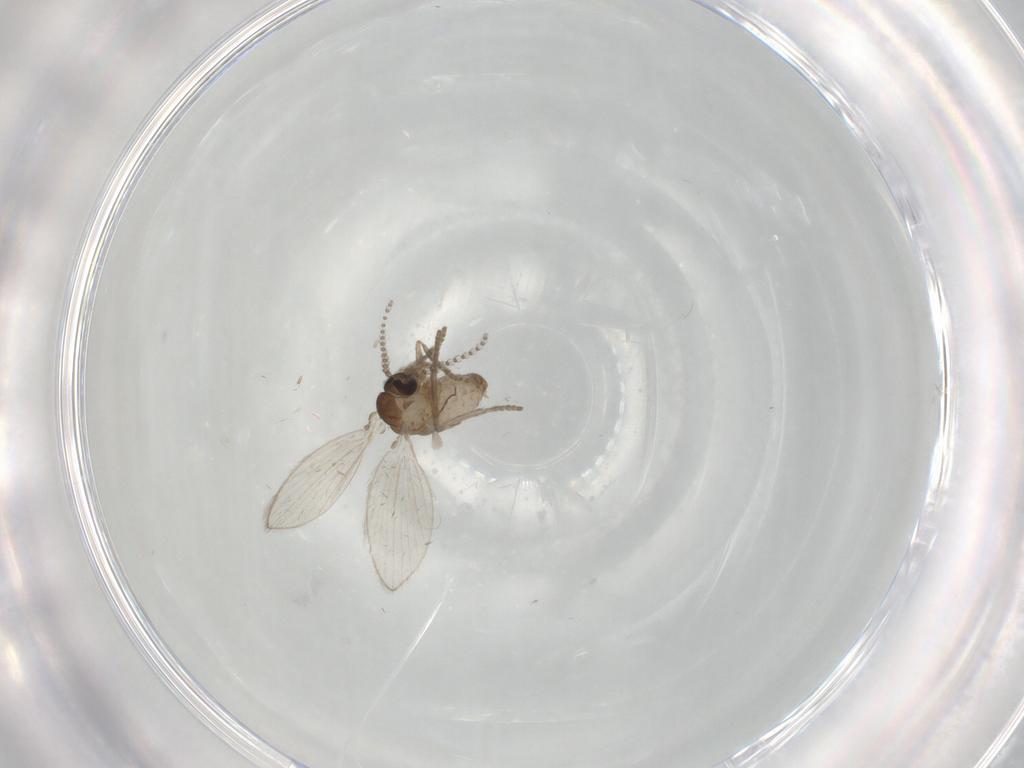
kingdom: Animalia
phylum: Arthropoda
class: Insecta
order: Diptera
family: Psychodidae
